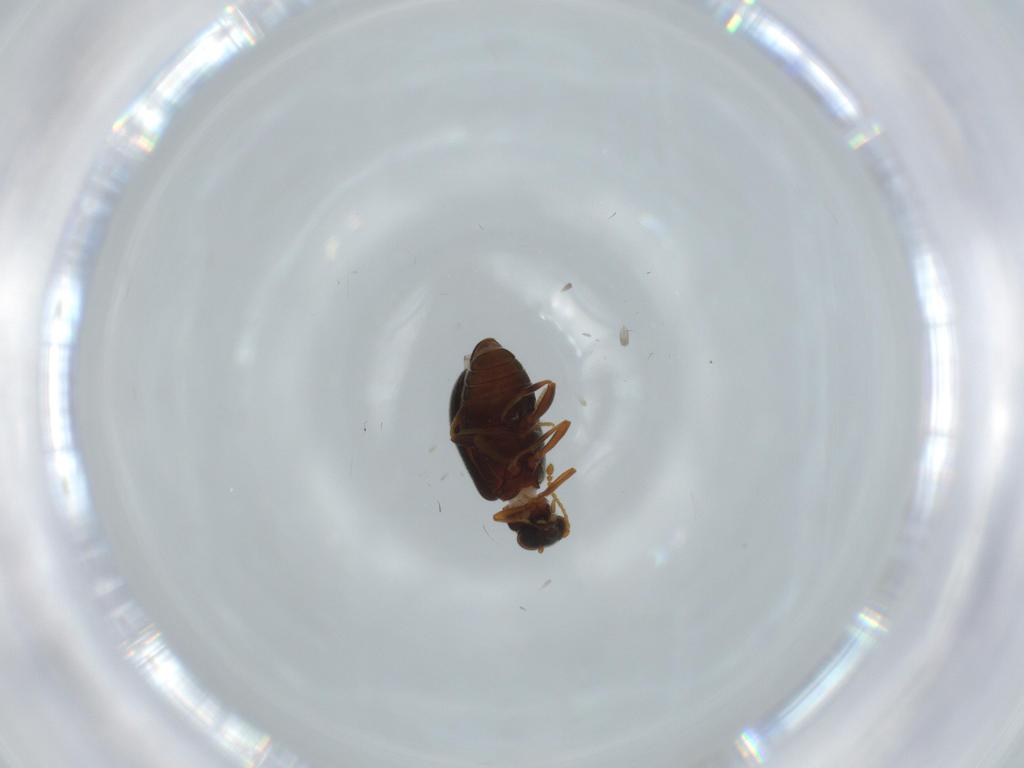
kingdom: Animalia
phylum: Arthropoda
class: Insecta
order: Coleoptera
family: Aderidae
